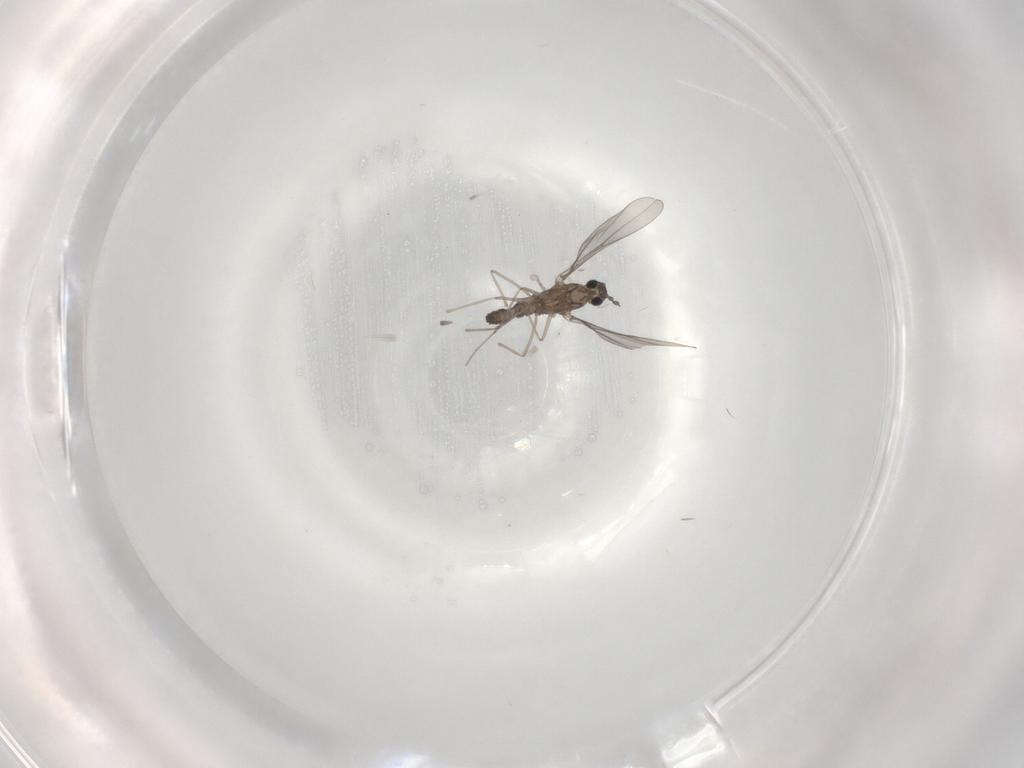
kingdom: Animalia
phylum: Arthropoda
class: Insecta
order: Diptera
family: Cecidomyiidae
